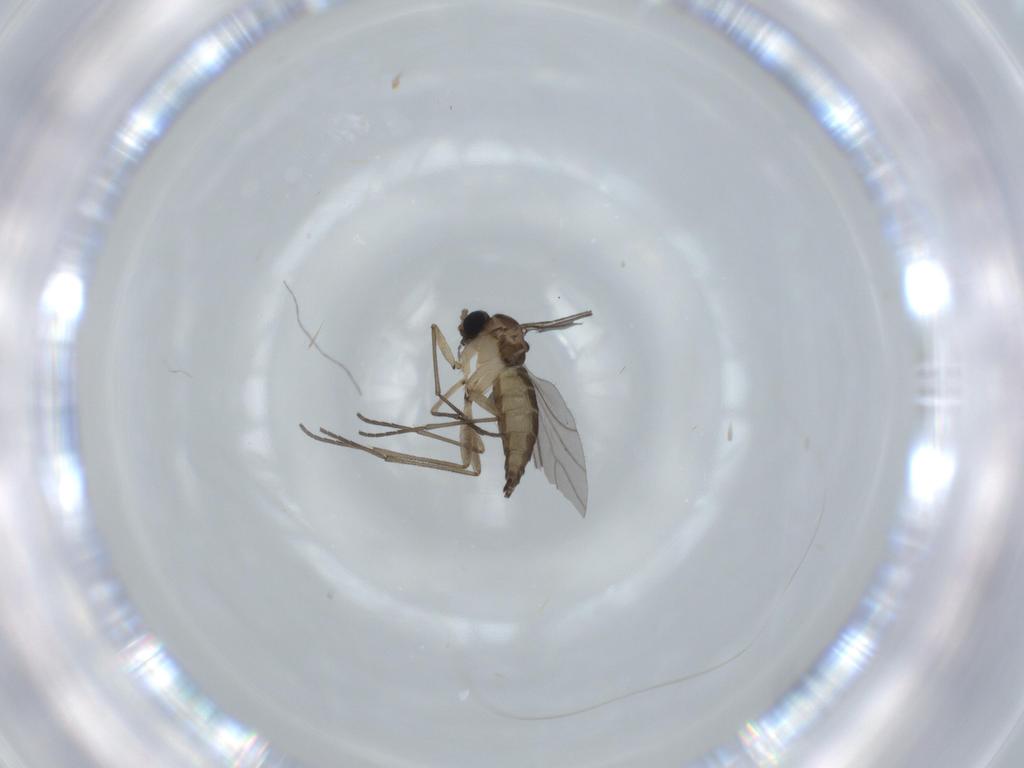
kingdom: Animalia
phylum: Arthropoda
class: Insecta
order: Diptera
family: Sciaridae
